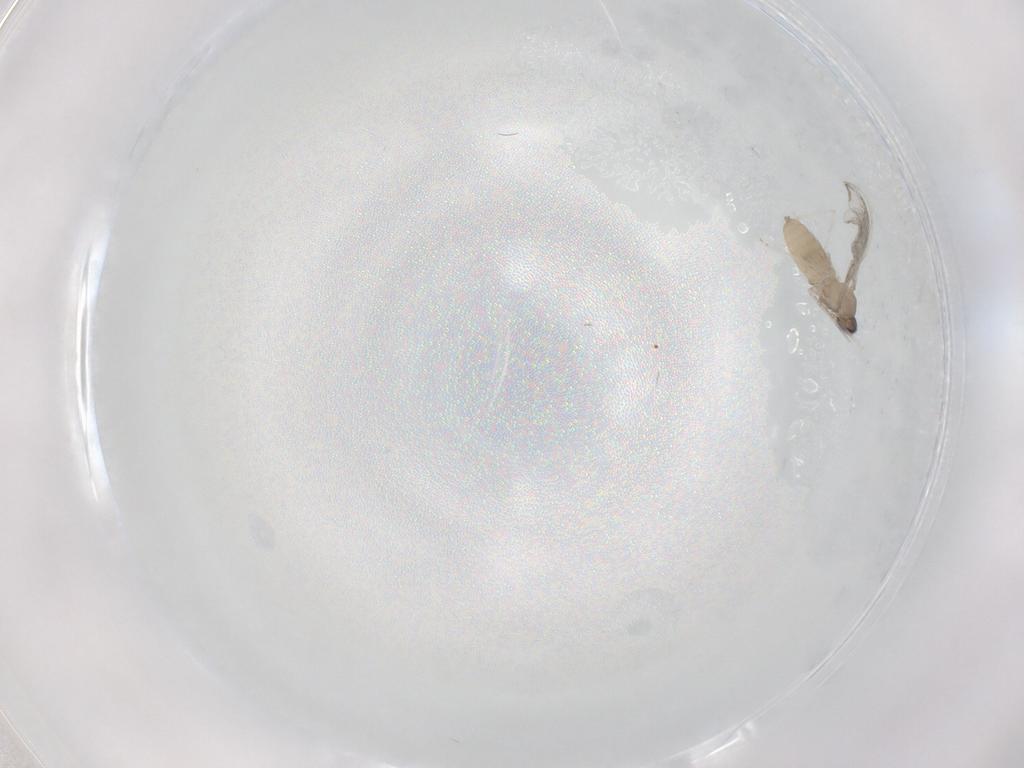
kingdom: Animalia
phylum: Arthropoda
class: Insecta
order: Diptera
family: Cecidomyiidae
